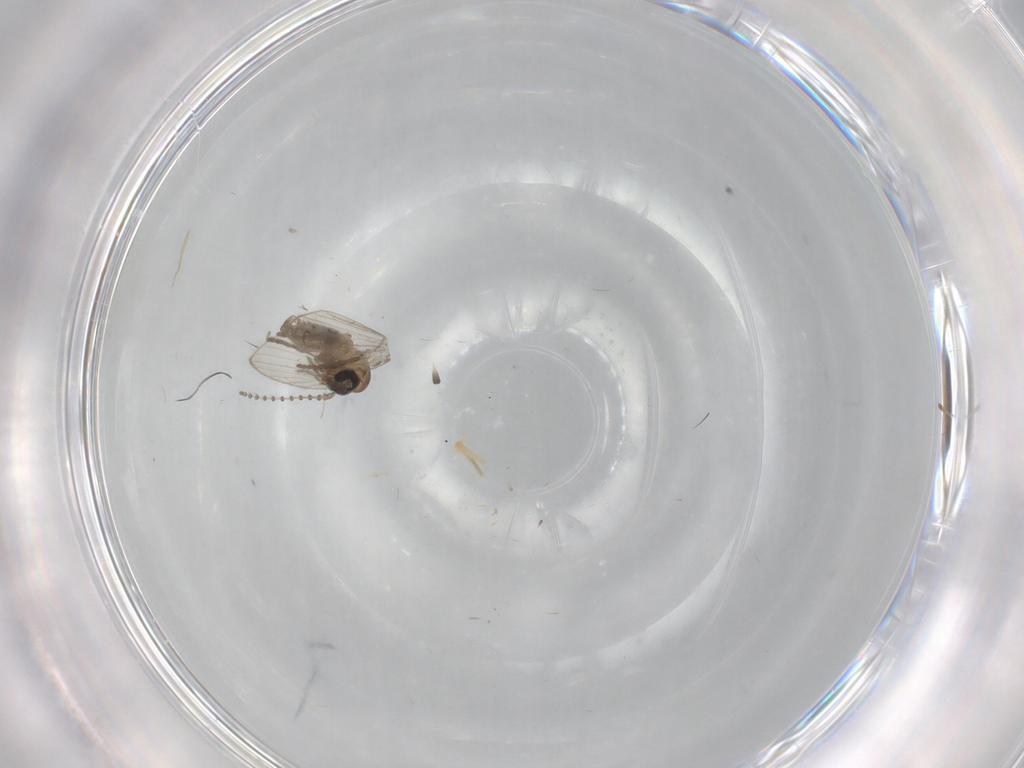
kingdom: Animalia
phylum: Arthropoda
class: Insecta
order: Diptera
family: Psychodidae
